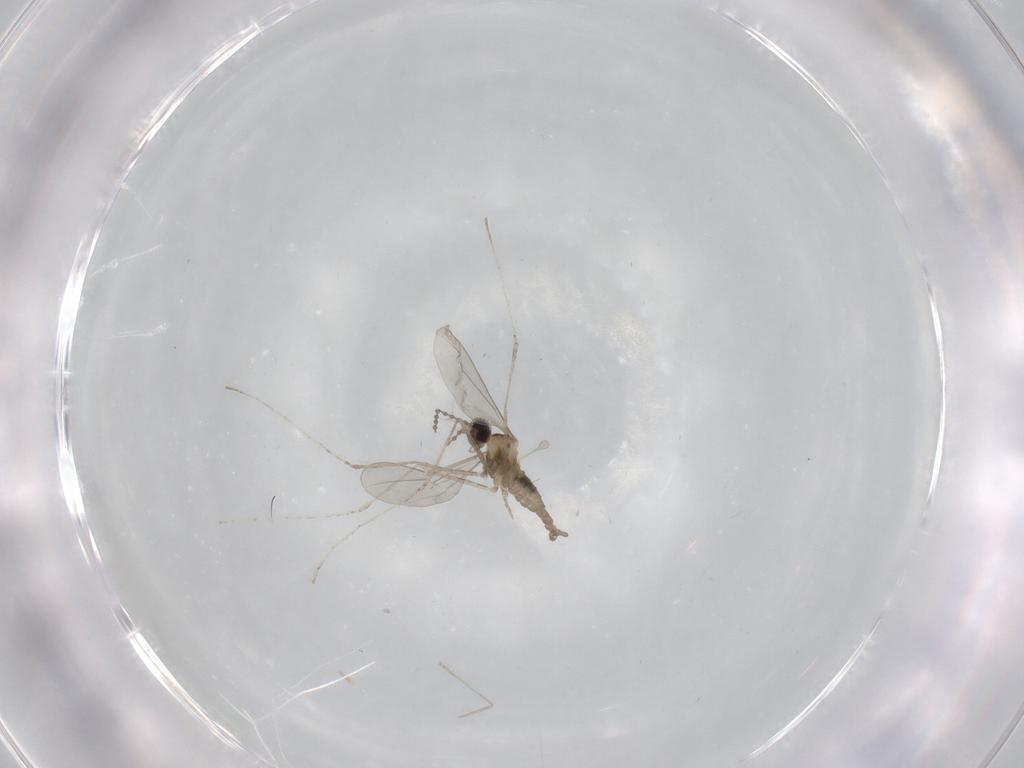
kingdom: Animalia
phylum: Arthropoda
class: Insecta
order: Diptera
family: Cecidomyiidae
